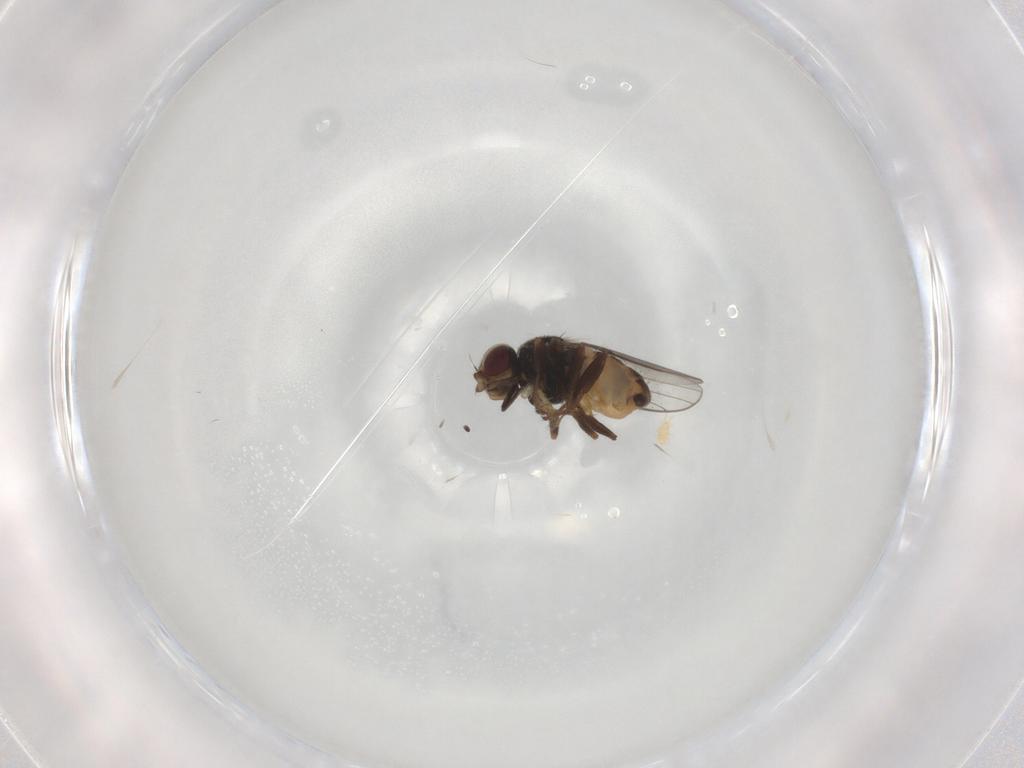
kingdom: Animalia
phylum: Arthropoda
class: Insecta
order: Diptera
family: Chloropidae
